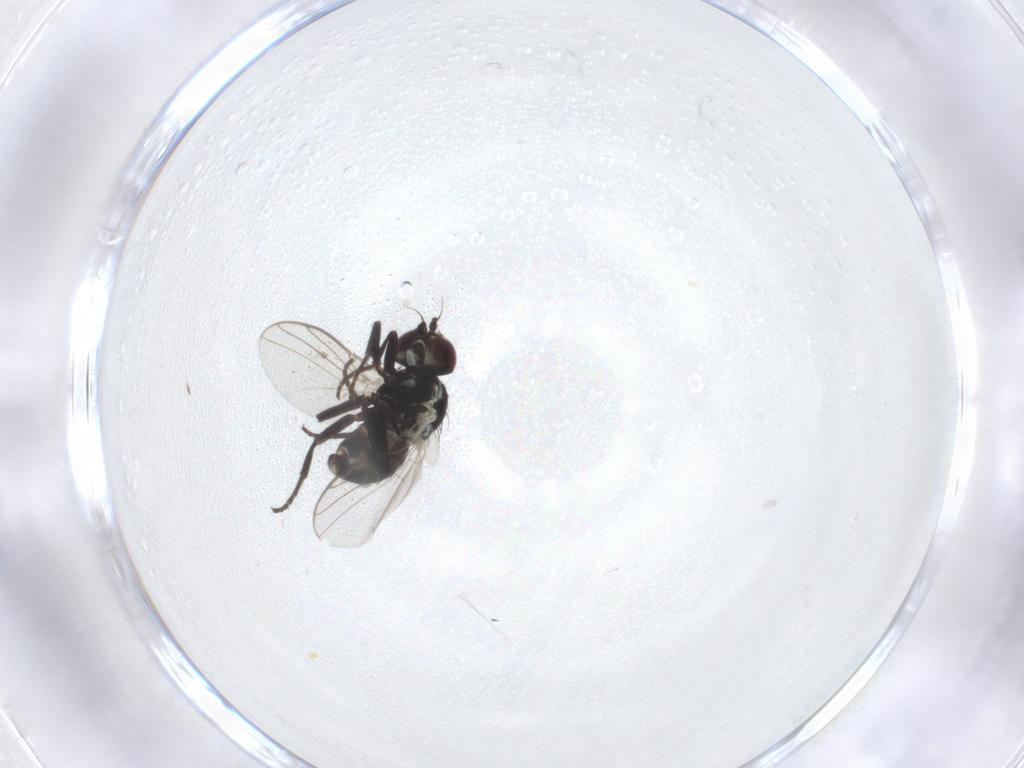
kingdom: Animalia
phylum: Arthropoda
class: Insecta
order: Diptera
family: Agromyzidae
